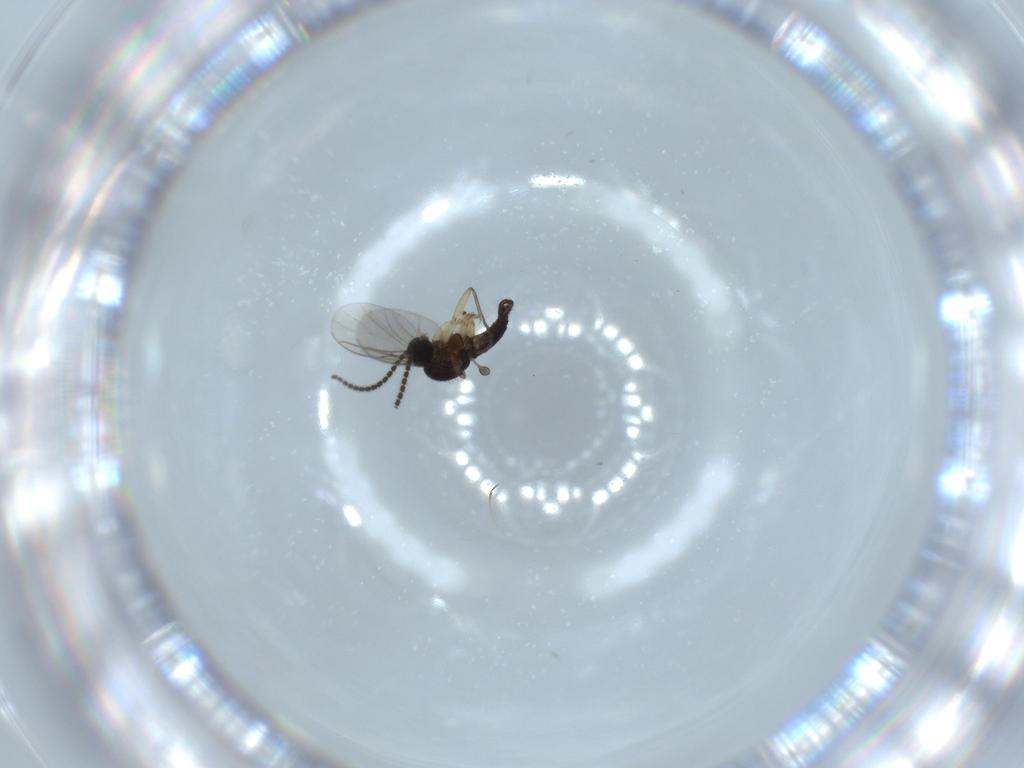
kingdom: Animalia
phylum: Arthropoda
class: Insecta
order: Diptera
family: Sciaridae
